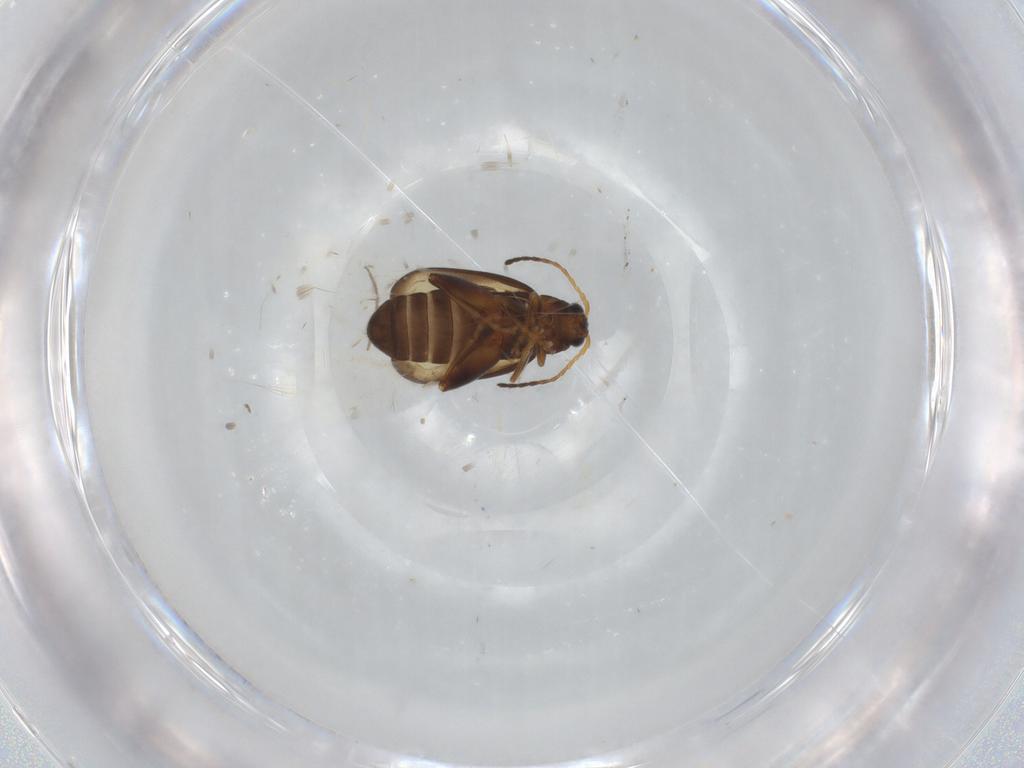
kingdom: Animalia
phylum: Arthropoda
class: Insecta
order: Coleoptera
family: Chrysomelidae
